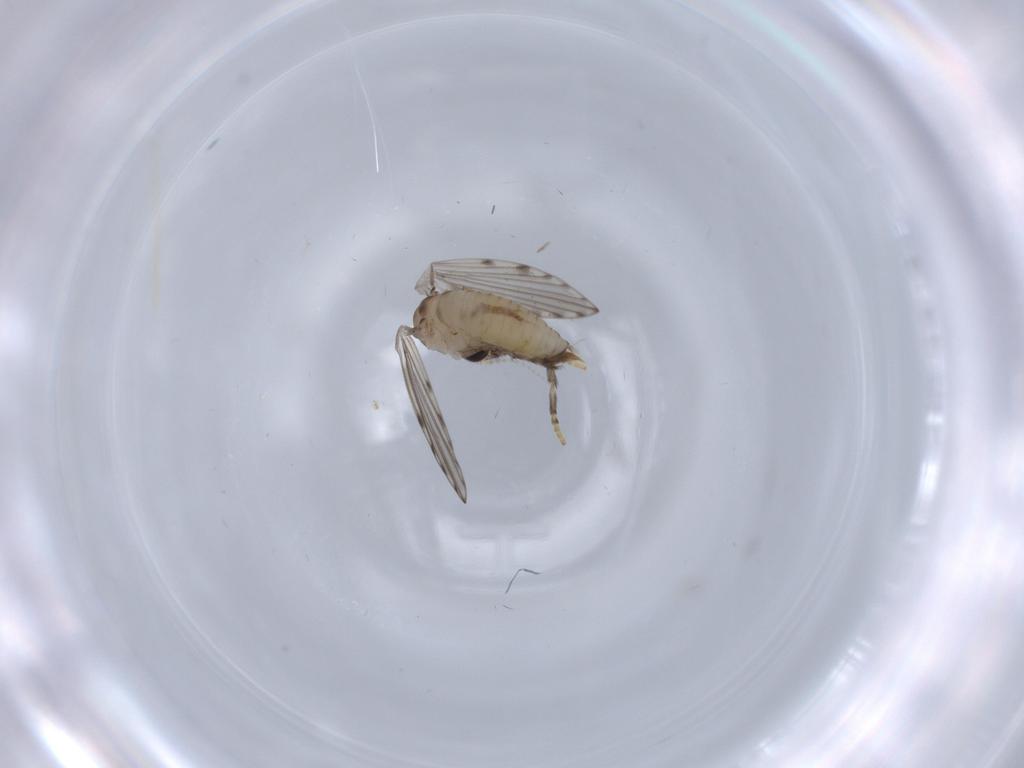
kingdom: Animalia
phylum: Arthropoda
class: Insecta
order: Diptera
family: Psychodidae
